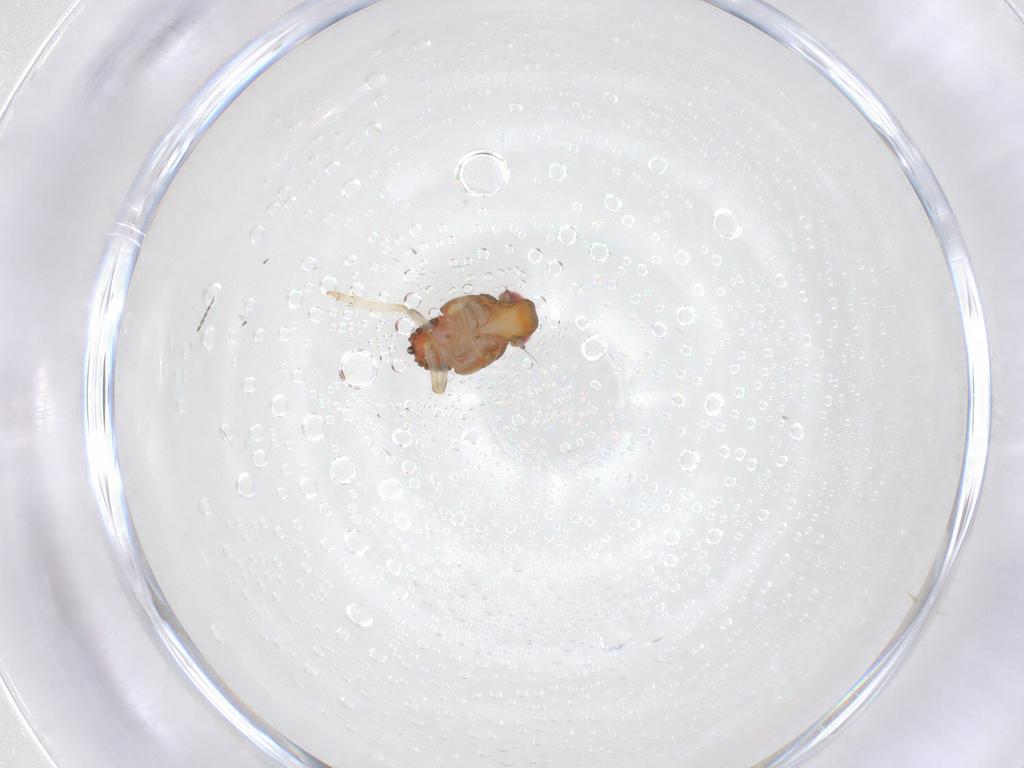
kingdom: Animalia
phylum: Arthropoda
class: Insecta
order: Hemiptera
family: Issidae
